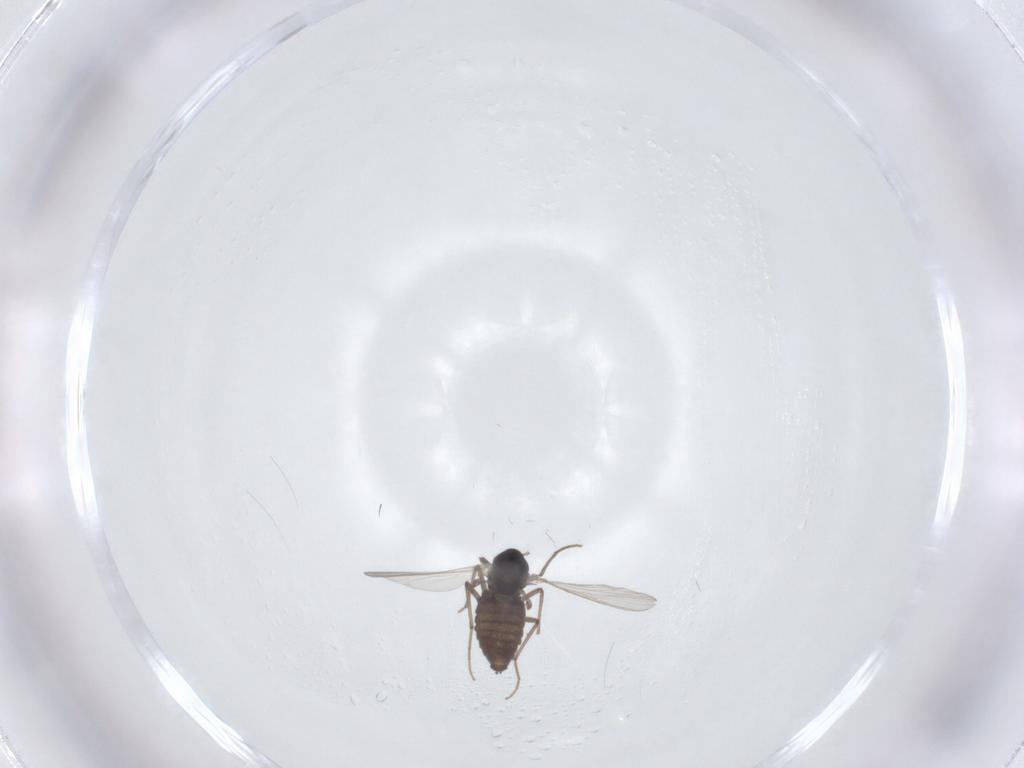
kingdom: Animalia
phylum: Arthropoda
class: Insecta
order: Diptera
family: Chironomidae
